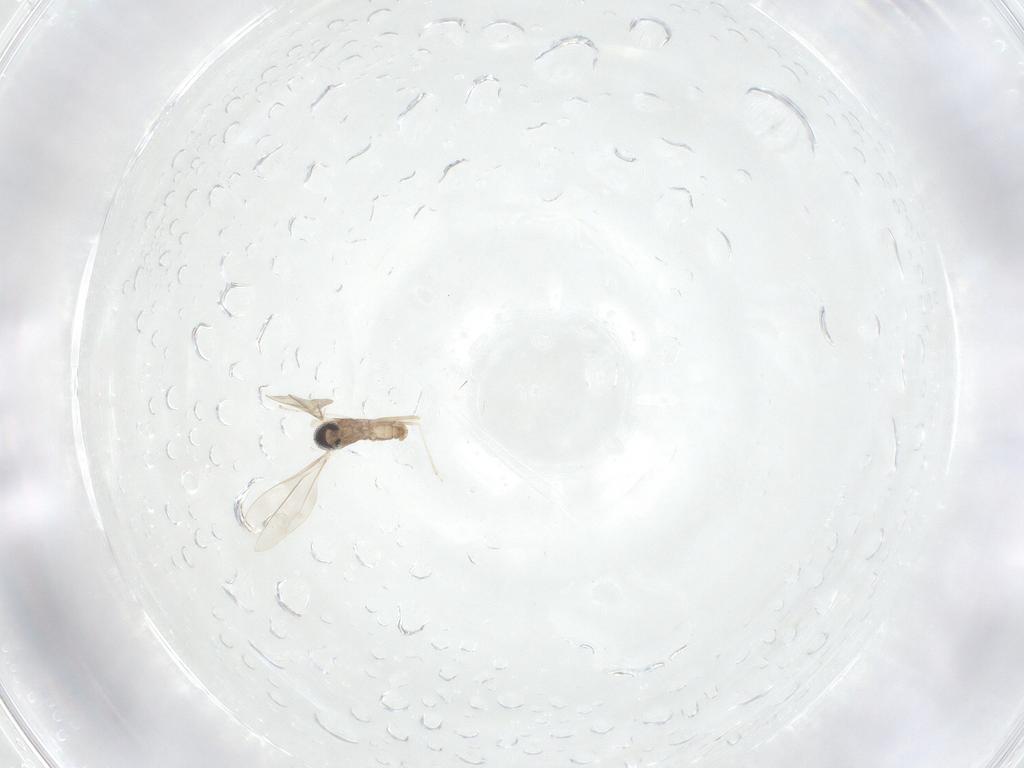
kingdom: Animalia
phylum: Arthropoda
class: Insecta
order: Diptera
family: Cecidomyiidae
